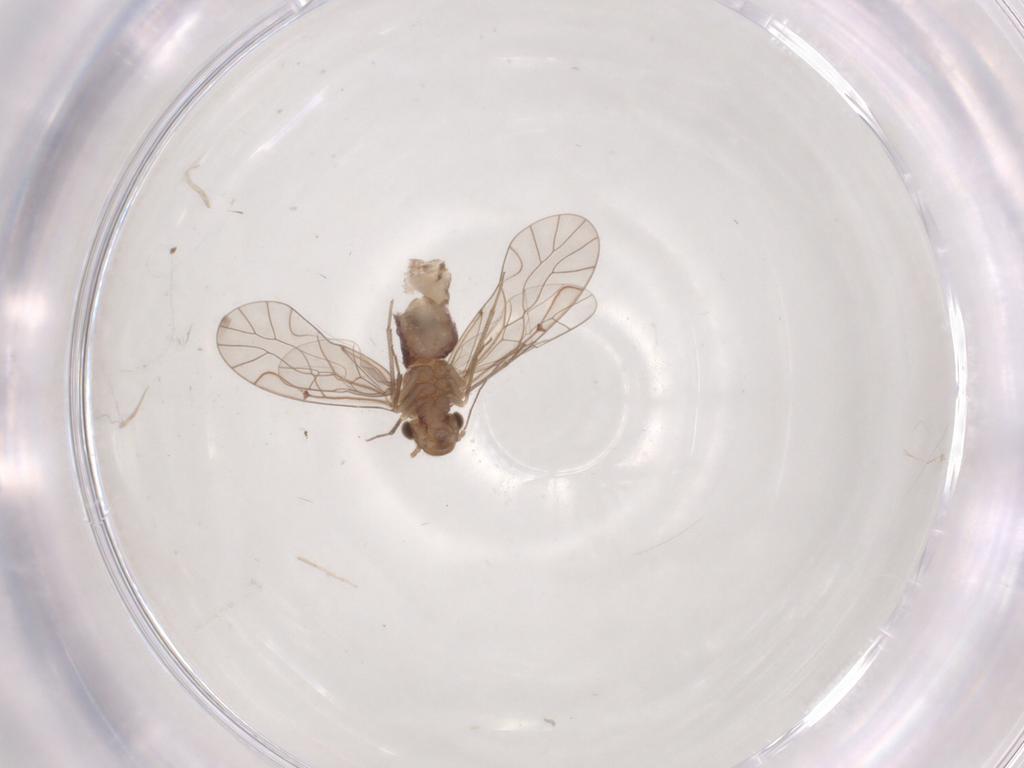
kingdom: Animalia
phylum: Arthropoda
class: Insecta
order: Psocodea
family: Lachesillidae
